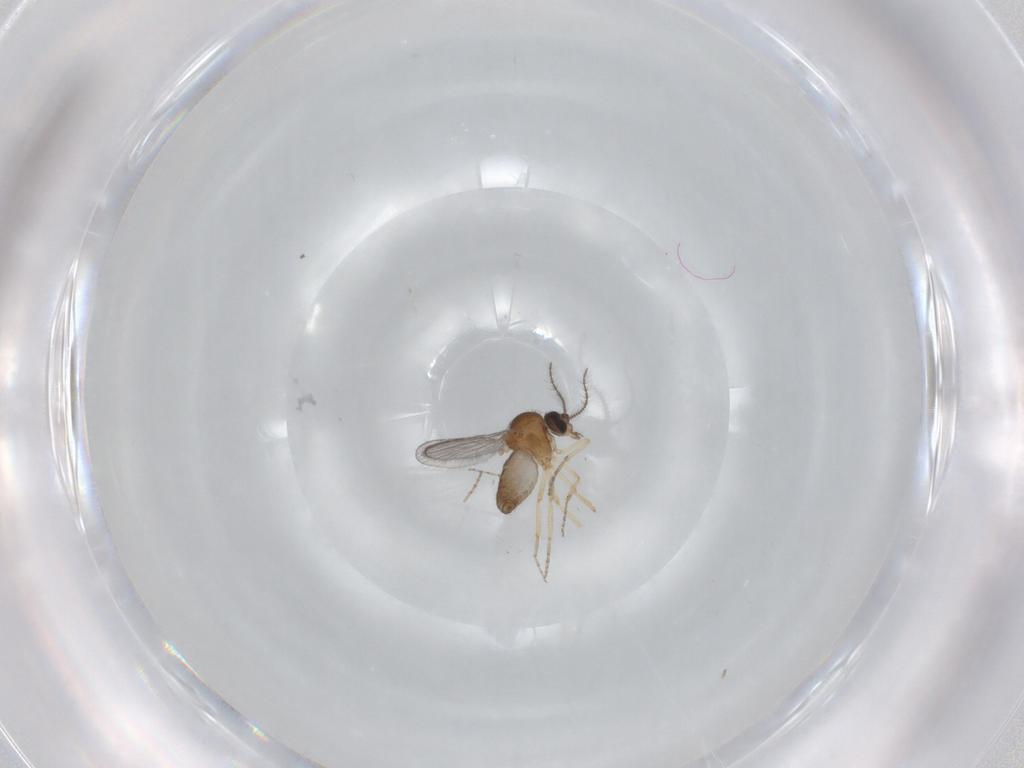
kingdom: Animalia
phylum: Arthropoda
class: Insecta
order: Diptera
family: Ceratopogonidae
